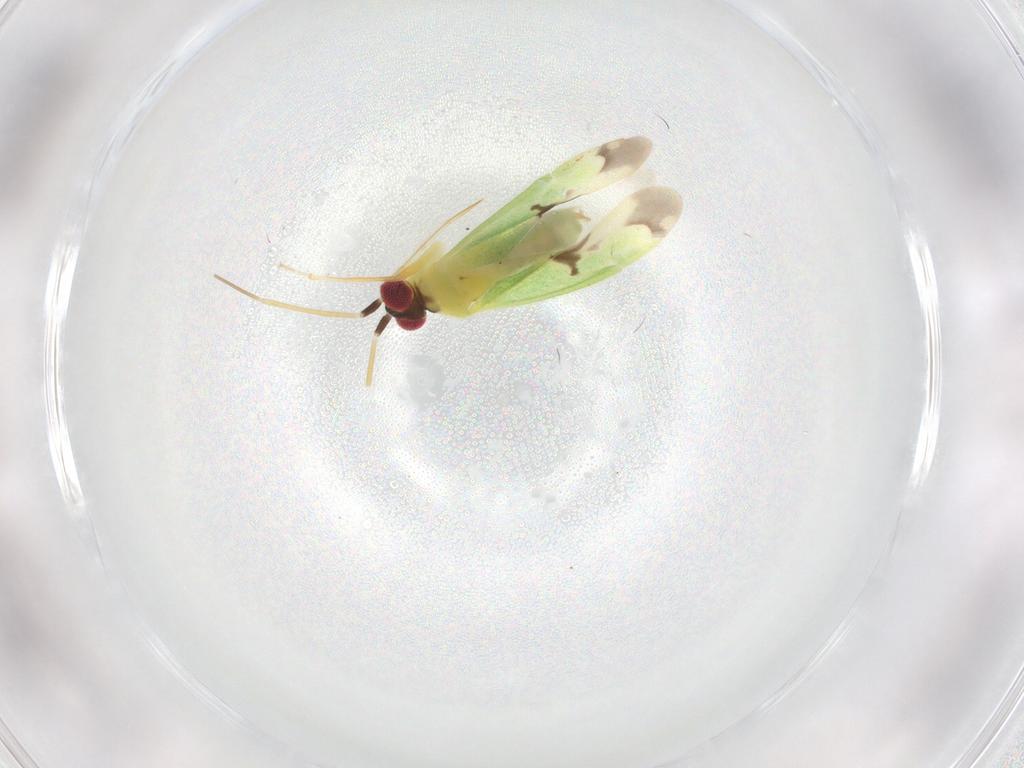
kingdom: Animalia
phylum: Arthropoda
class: Insecta
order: Hemiptera
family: Miridae
